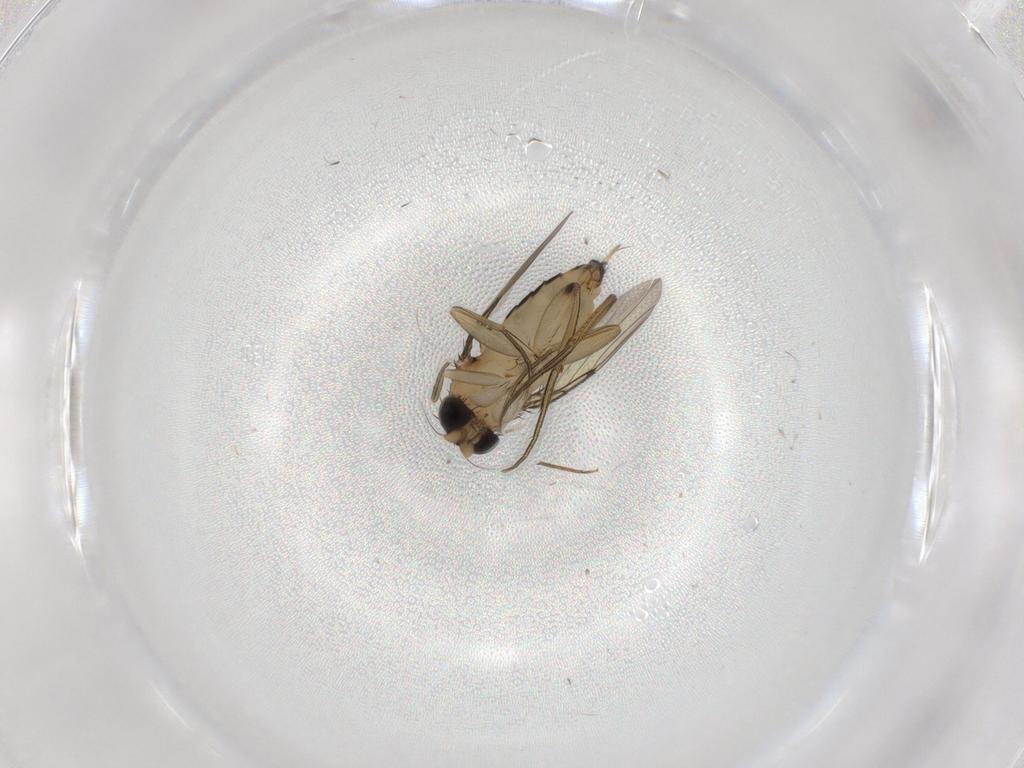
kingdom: Animalia
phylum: Arthropoda
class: Insecta
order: Diptera
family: Phoridae
